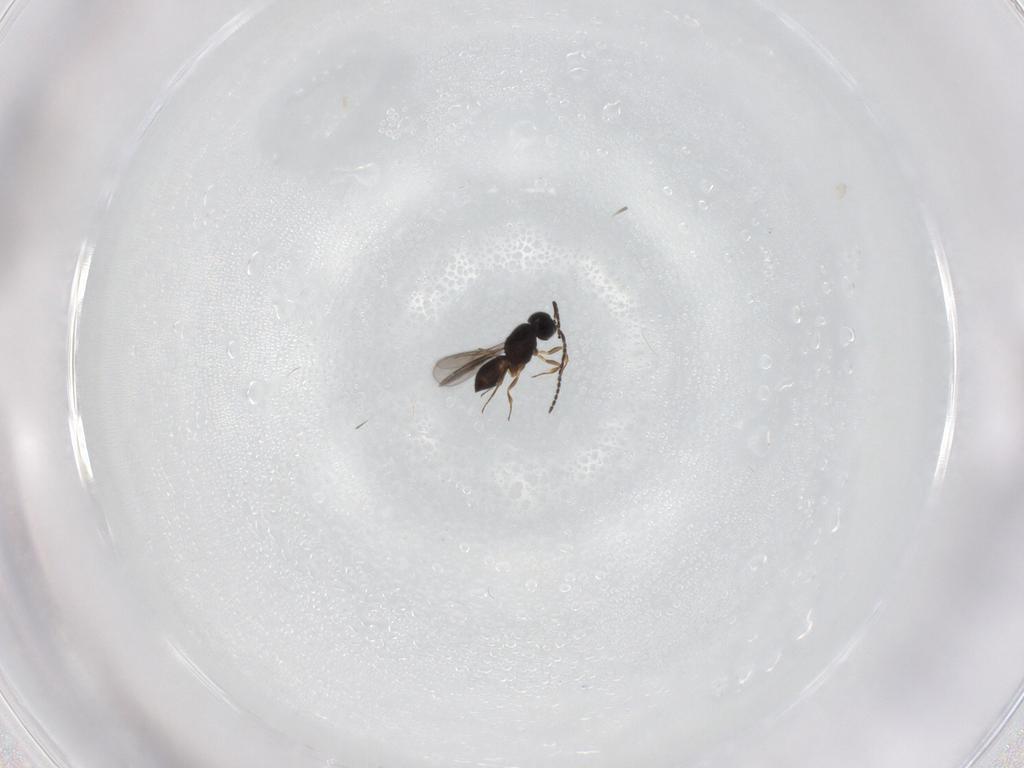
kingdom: Animalia
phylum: Arthropoda
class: Insecta
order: Hymenoptera
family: Scelionidae
